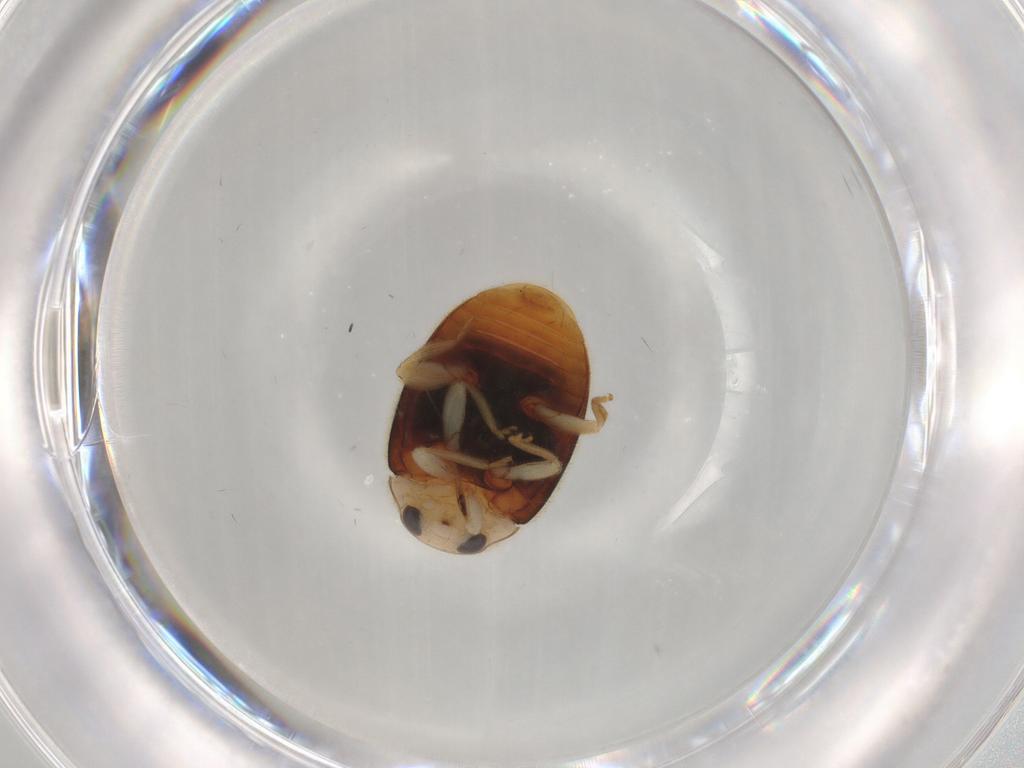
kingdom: Animalia
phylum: Arthropoda
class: Insecta
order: Coleoptera
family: Coccinellidae
